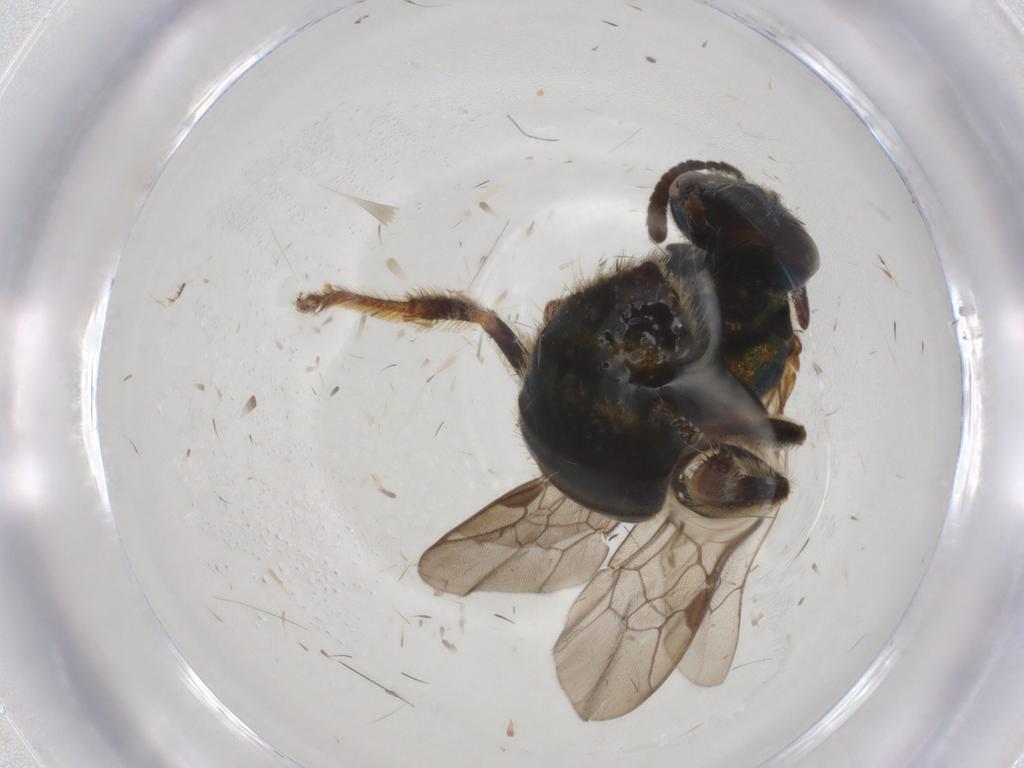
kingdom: Animalia
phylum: Arthropoda
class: Insecta
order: Hymenoptera
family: Halictidae
